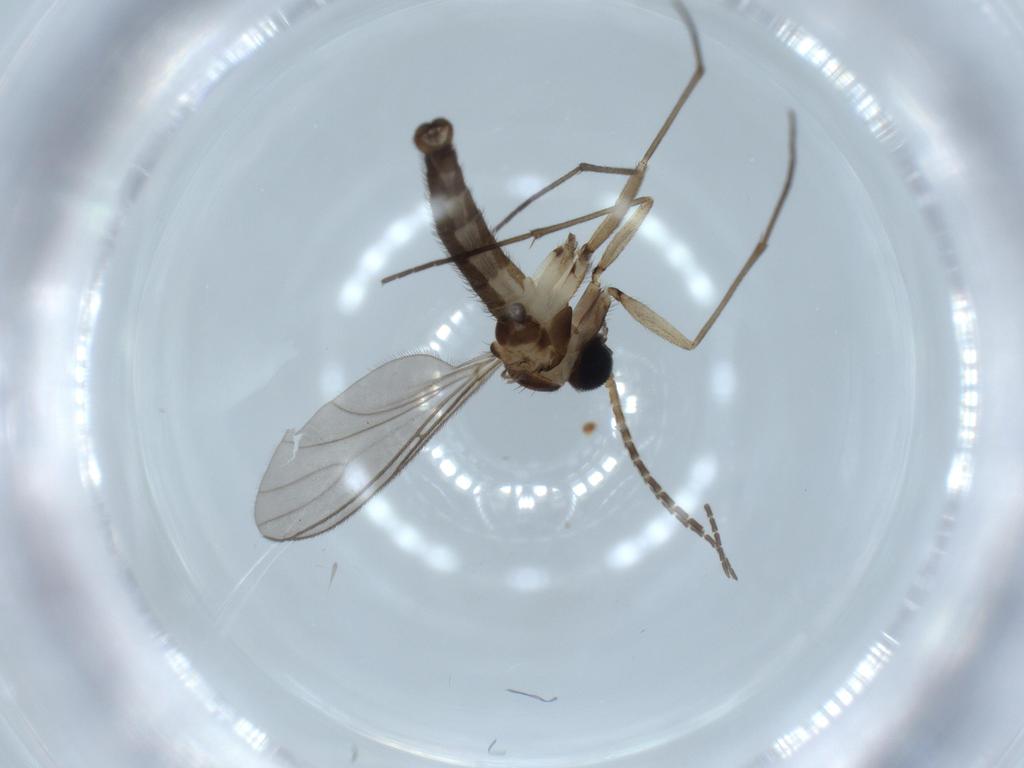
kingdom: Animalia
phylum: Arthropoda
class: Insecta
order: Diptera
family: Sciaridae
